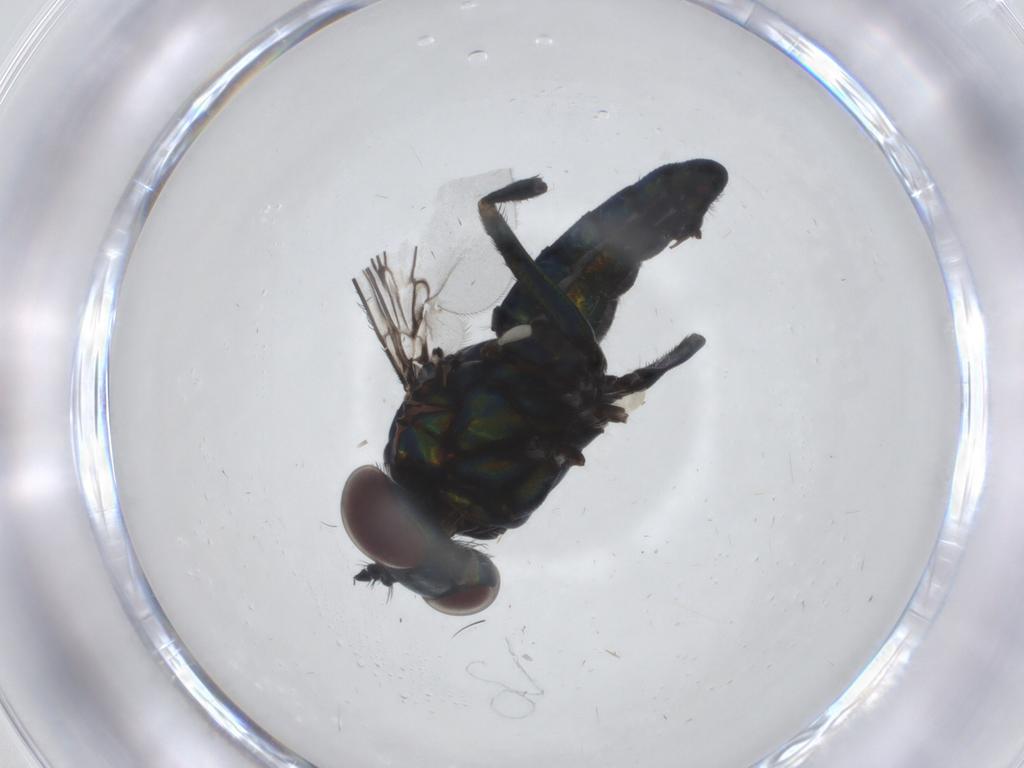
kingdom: Animalia
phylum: Arthropoda
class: Insecta
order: Diptera
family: Dolichopodidae
